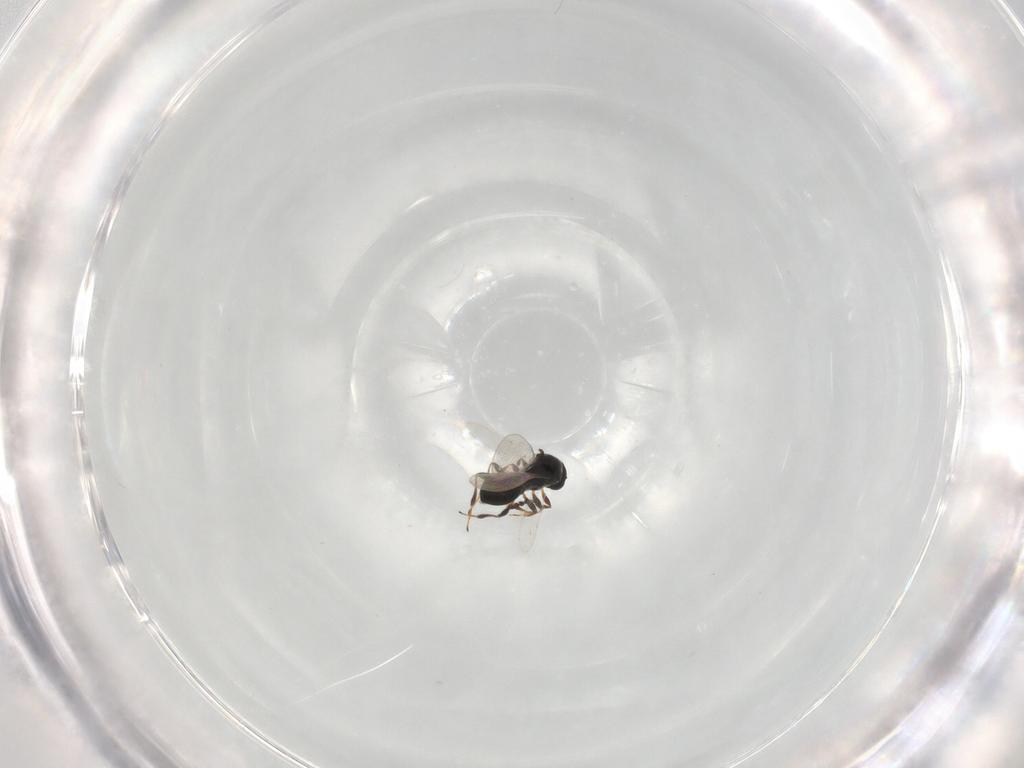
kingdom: Animalia
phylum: Arthropoda
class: Insecta
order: Hymenoptera
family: Platygastridae
